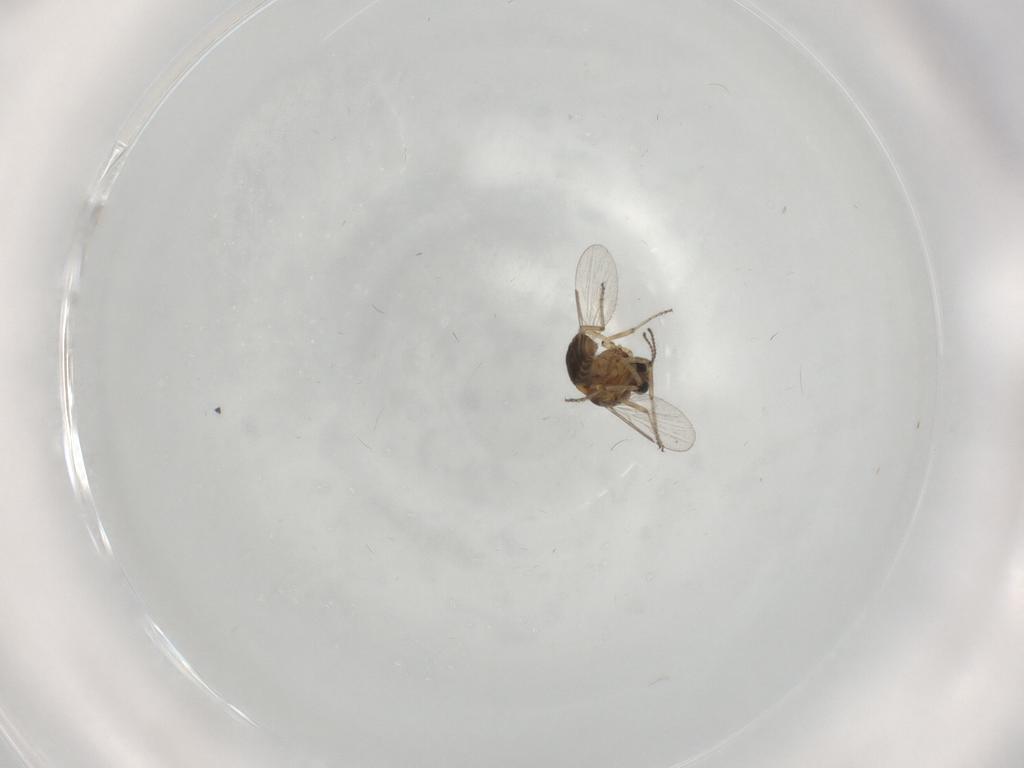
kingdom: Animalia
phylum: Arthropoda
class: Insecta
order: Diptera
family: Ceratopogonidae
